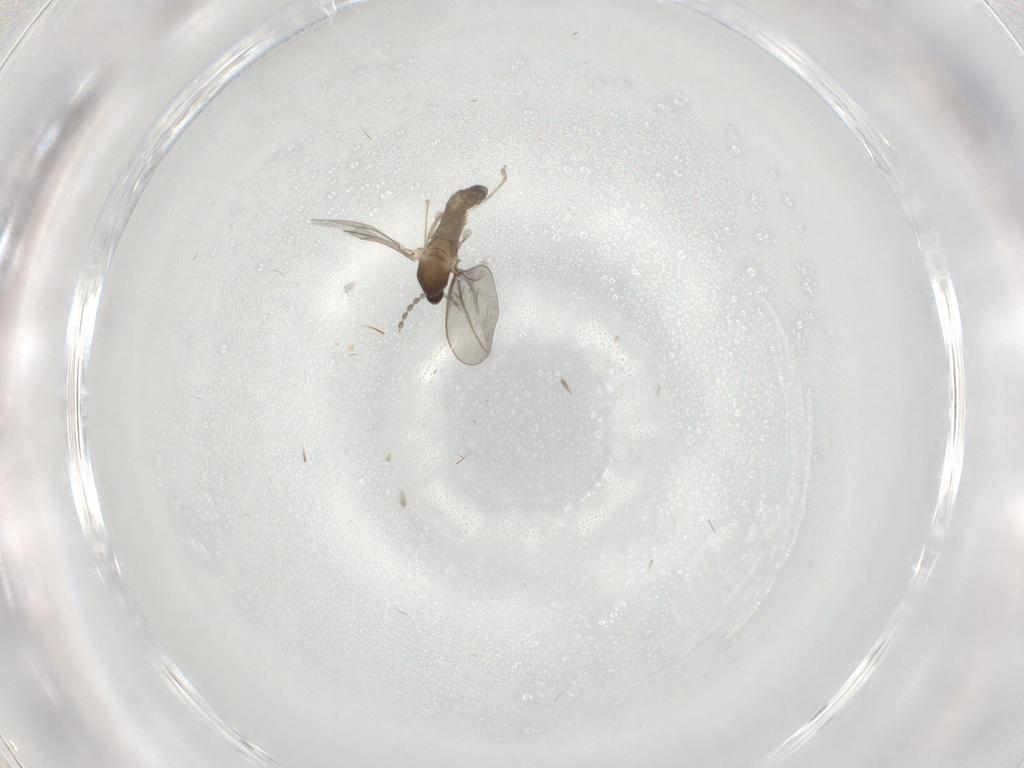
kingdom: Animalia
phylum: Arthropoda
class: Insecta
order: Diptera
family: Cecidomyiidae
